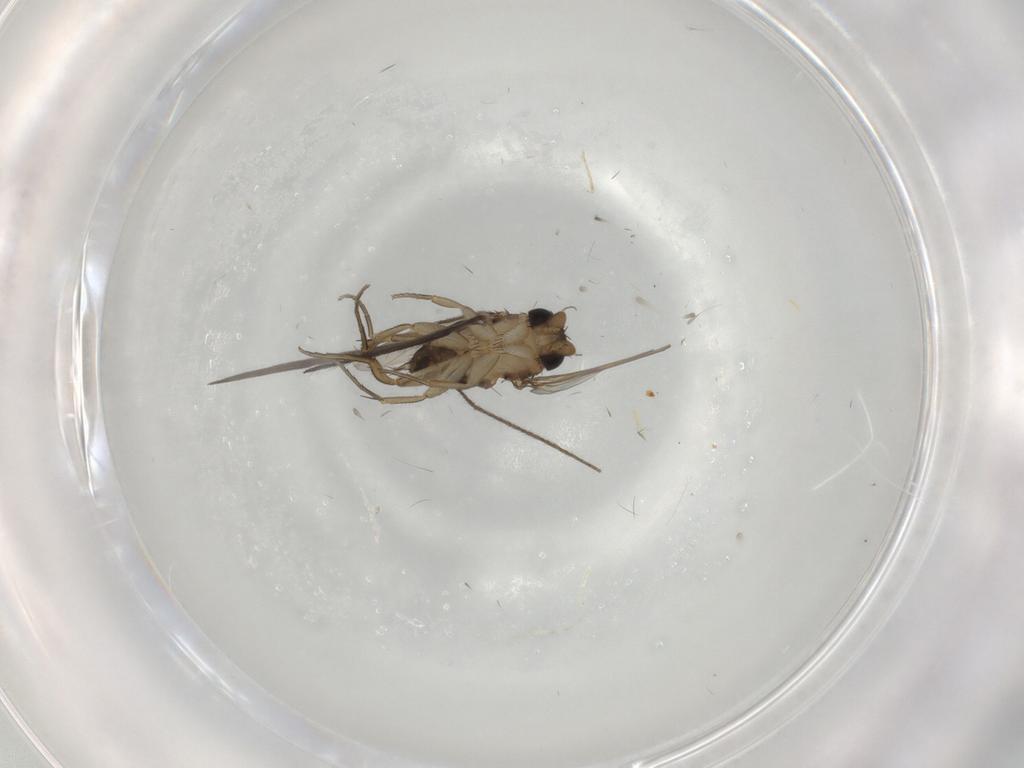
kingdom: Animalia
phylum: Arthropoda
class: Insecta
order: Diptera
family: Phoridae
